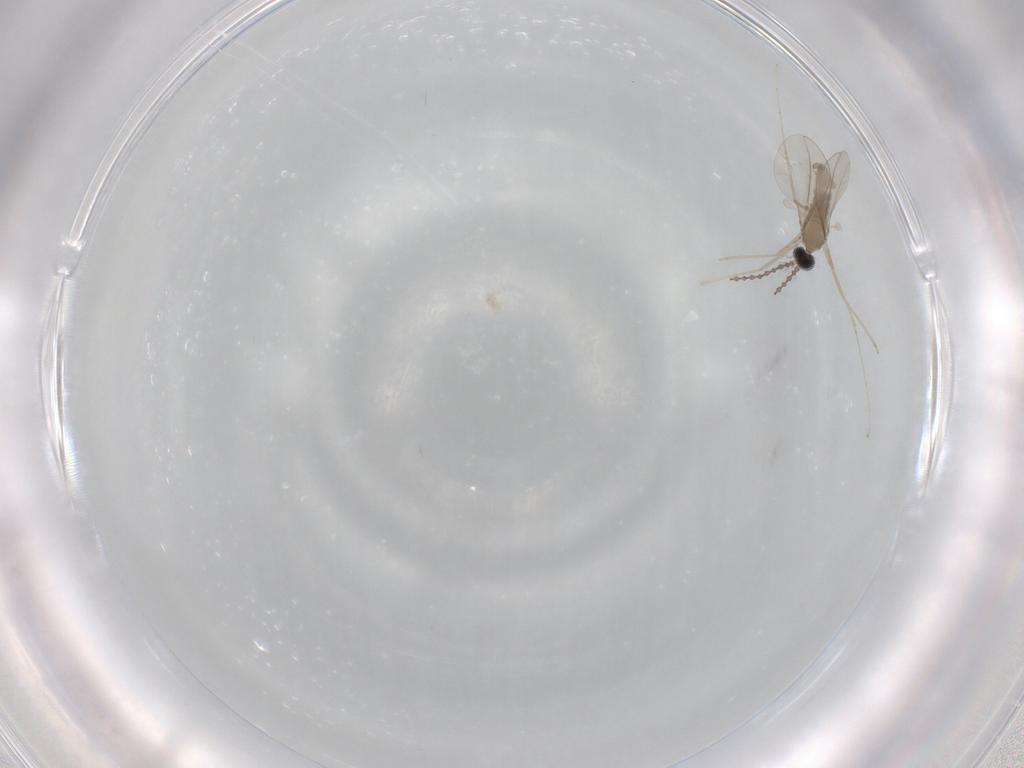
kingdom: Animalia
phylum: Arthropoda
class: Insecta
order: Diptera
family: Cecidomyiidae
